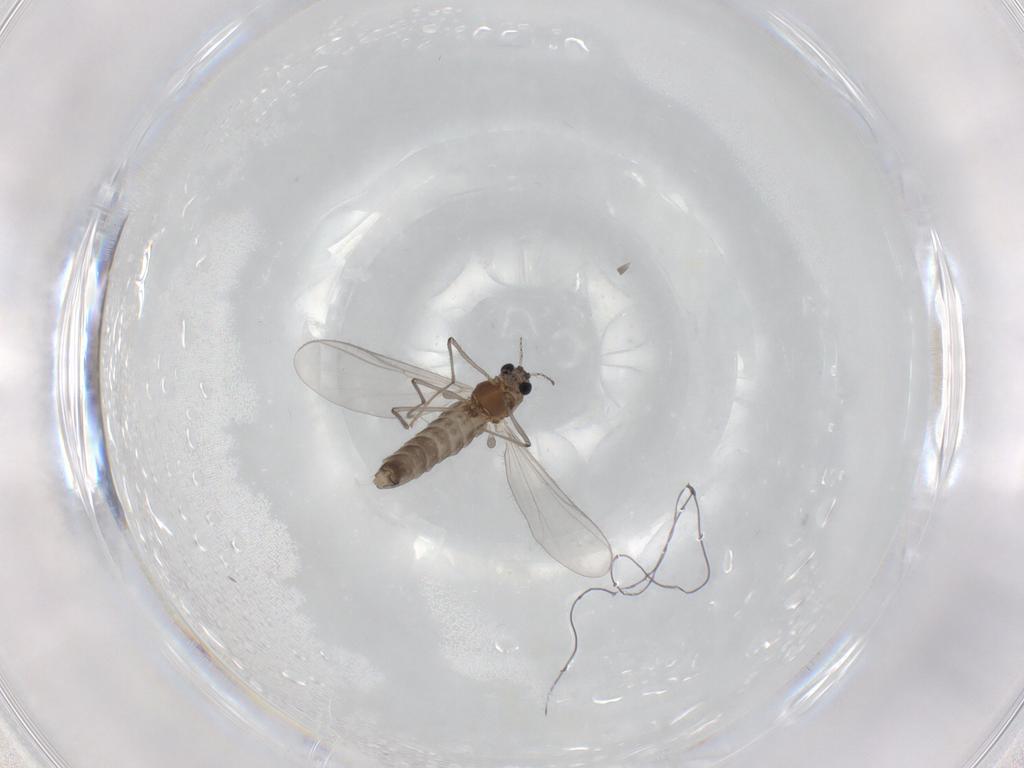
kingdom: Animalia
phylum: Arthropoda
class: Insecta
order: Diptera
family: Chironomidae
